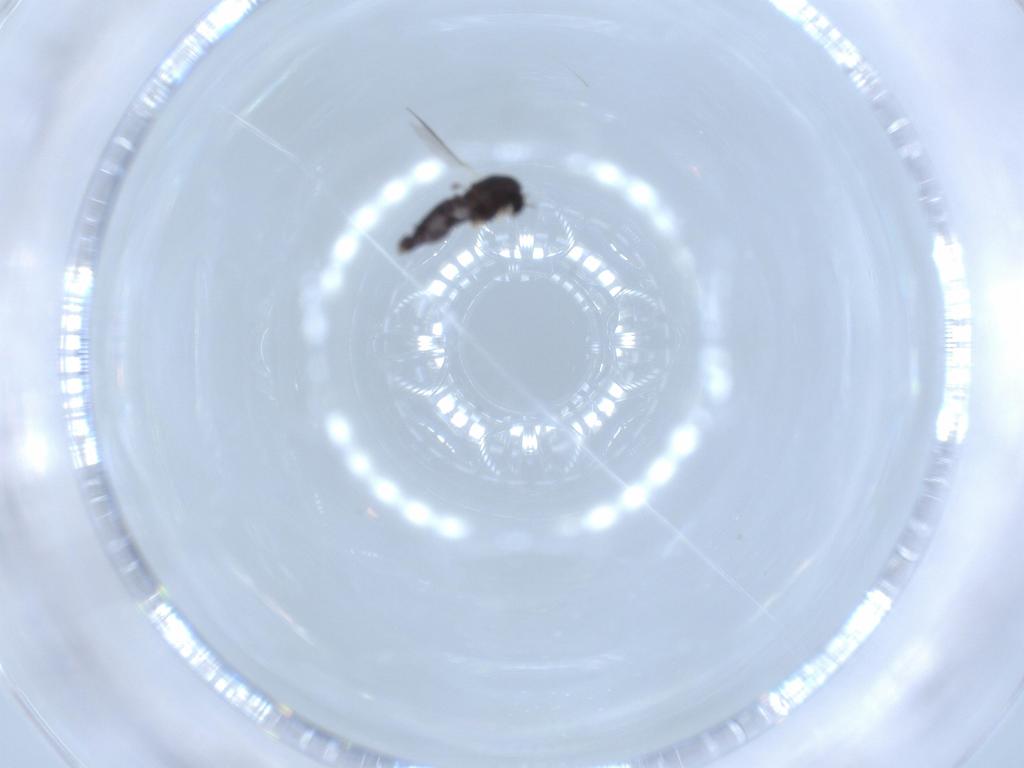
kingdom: Animalia
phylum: Arthropoda
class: Insecta
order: Diptera
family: Chironomidae
